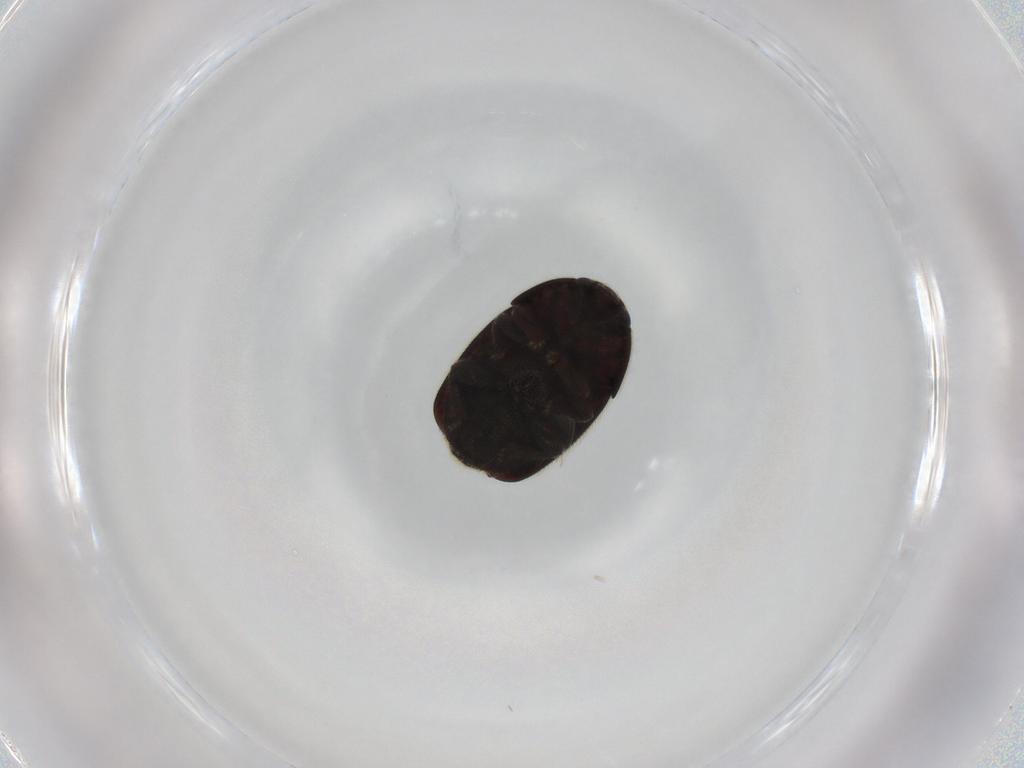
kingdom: Animalia
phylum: Arthropoda
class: Insecta
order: Coleoptera
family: Nitidulidae
